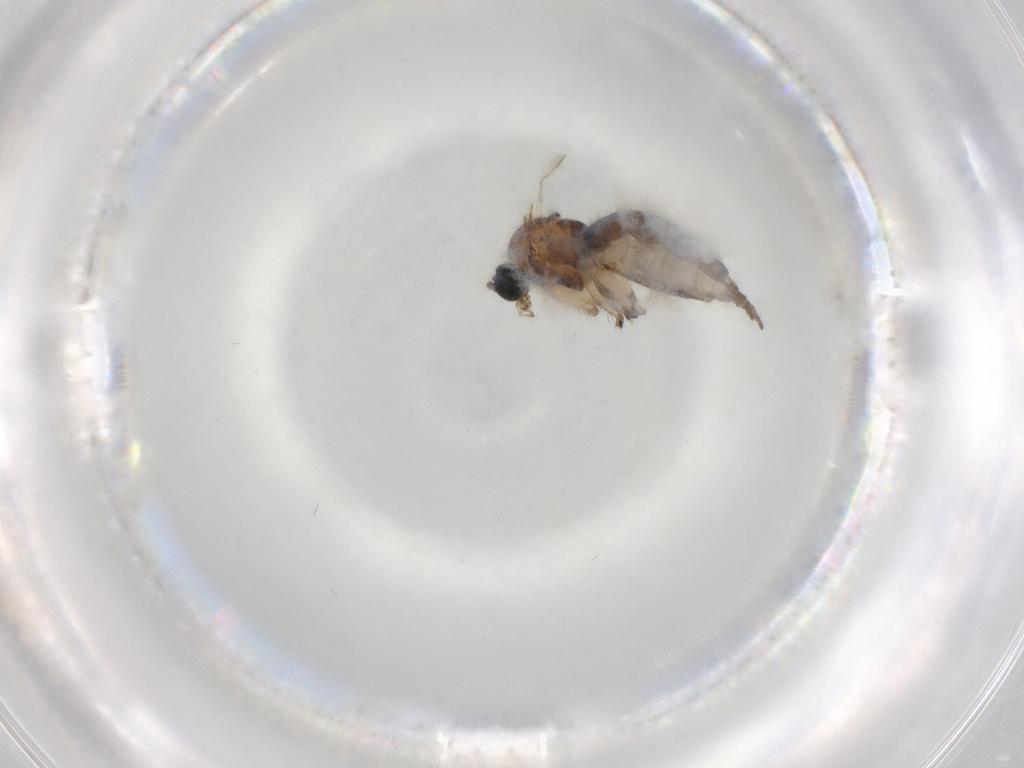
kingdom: Animalia
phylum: Arthropoda
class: Insecta
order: Diptera
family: Sciaridae
